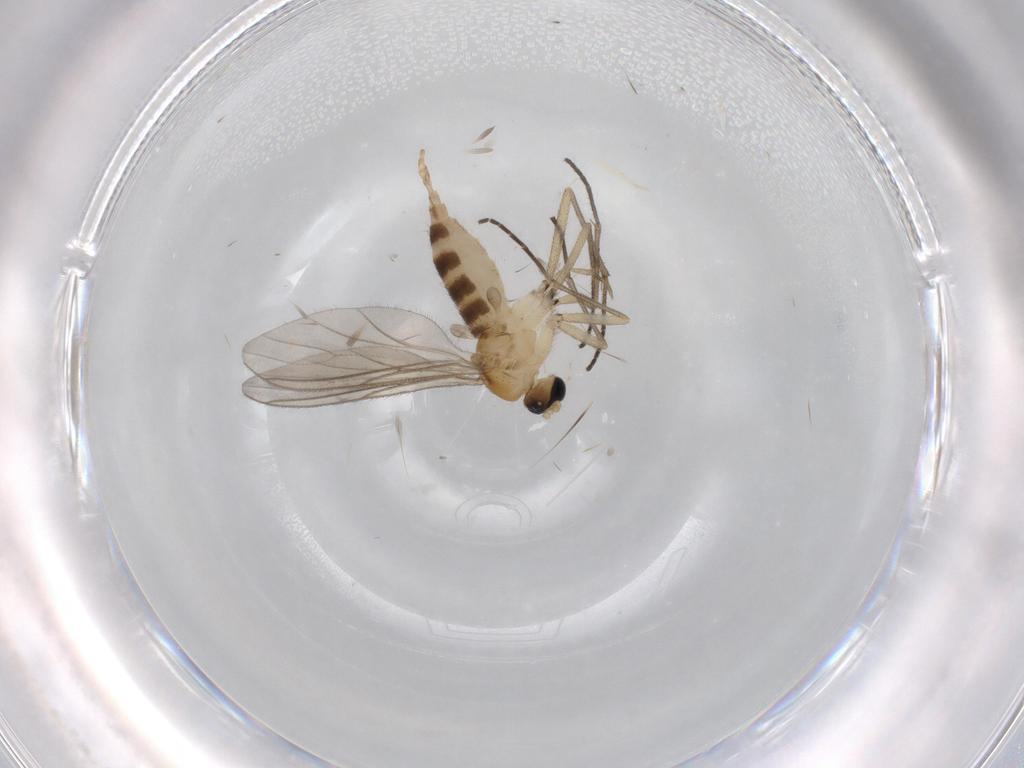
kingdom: Animalia
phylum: Arthropoda
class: Insecta
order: Diptera
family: Sciaridae
